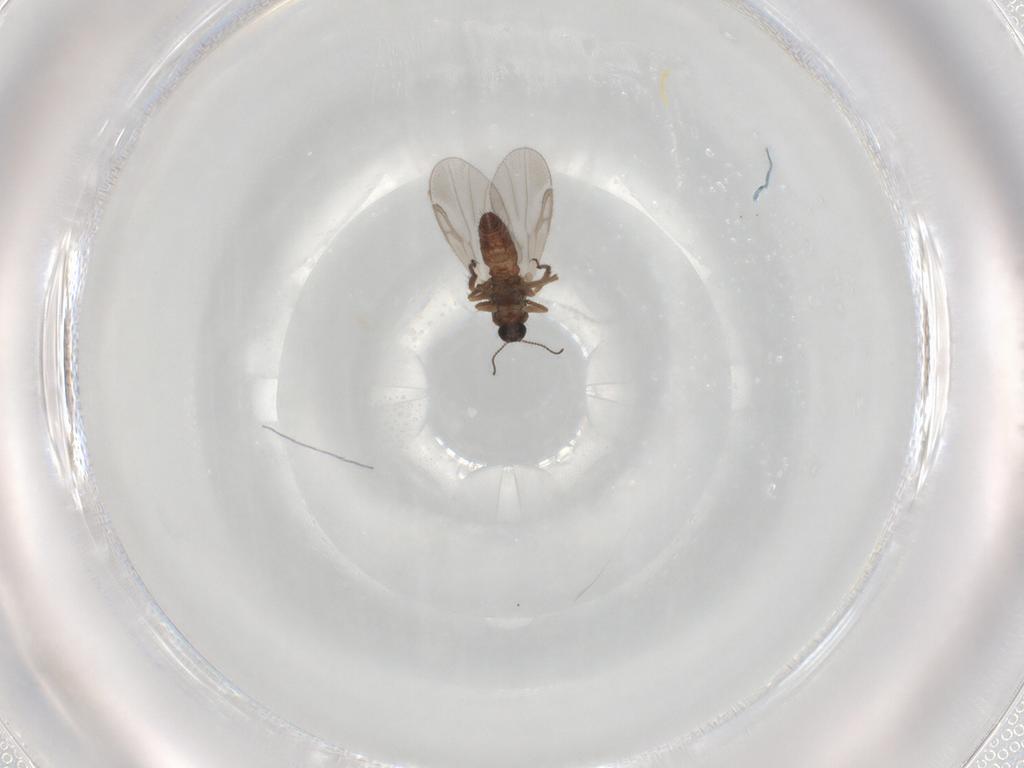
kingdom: Animalia
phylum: Arthropoda
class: Insecta
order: Diptera
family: Ceratopogonidae
